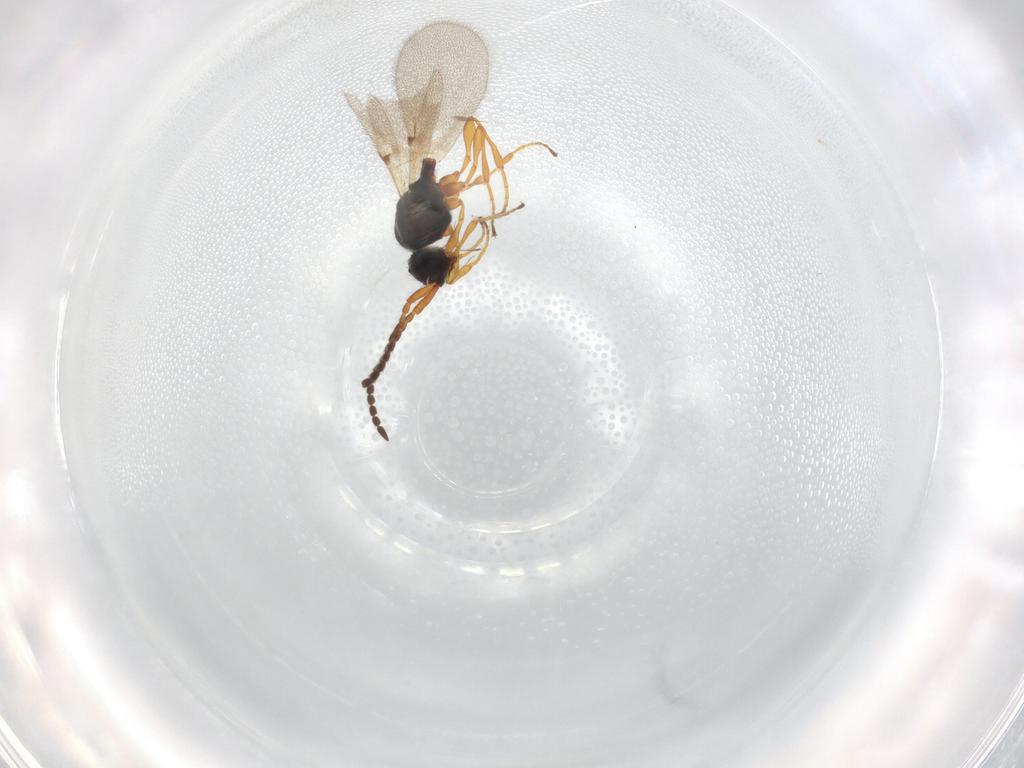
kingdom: Animalia
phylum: Arthropoda
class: Insecta
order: Hymenoptera
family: Diapriidae
